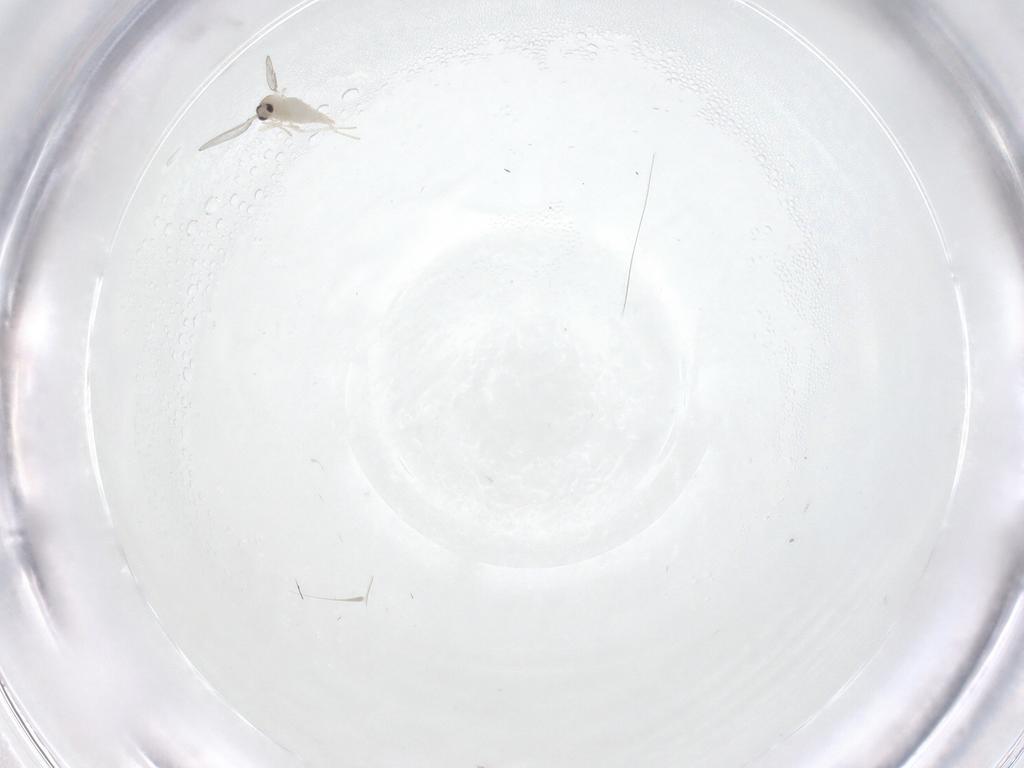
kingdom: Animalia
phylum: Arthropoda
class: Insecta
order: Diptera
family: Cecidomyiidae
